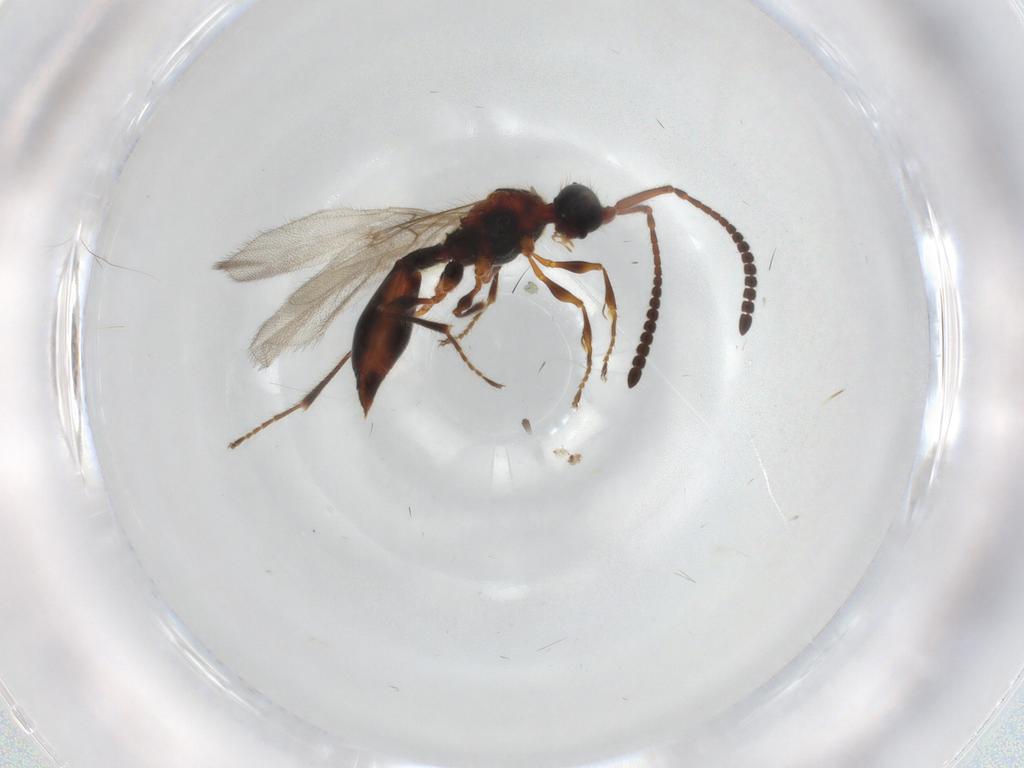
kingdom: Animalia
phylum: Arthropoda
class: Insecta
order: Hymenoptera
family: Diapriidae
